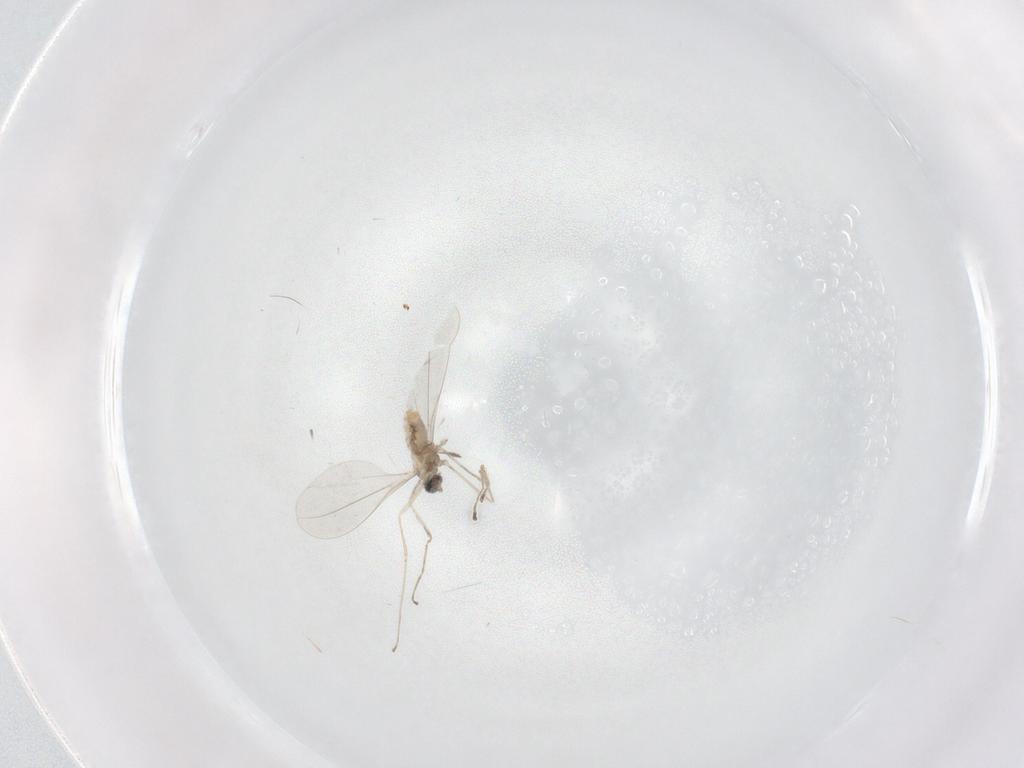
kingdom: Animalia
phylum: Arthropoda
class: Insecta
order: Diptera
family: Cecidomyiidae
